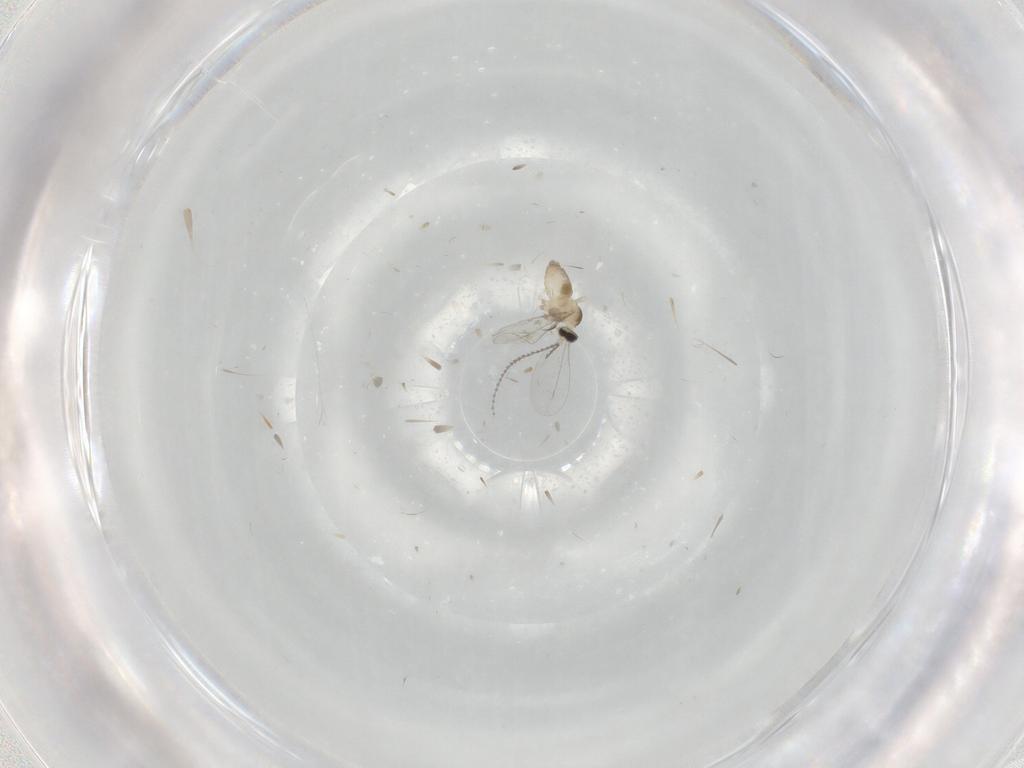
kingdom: Animalia
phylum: Arthropoda
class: Insecta
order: Diptera
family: Cecidomyiidae
